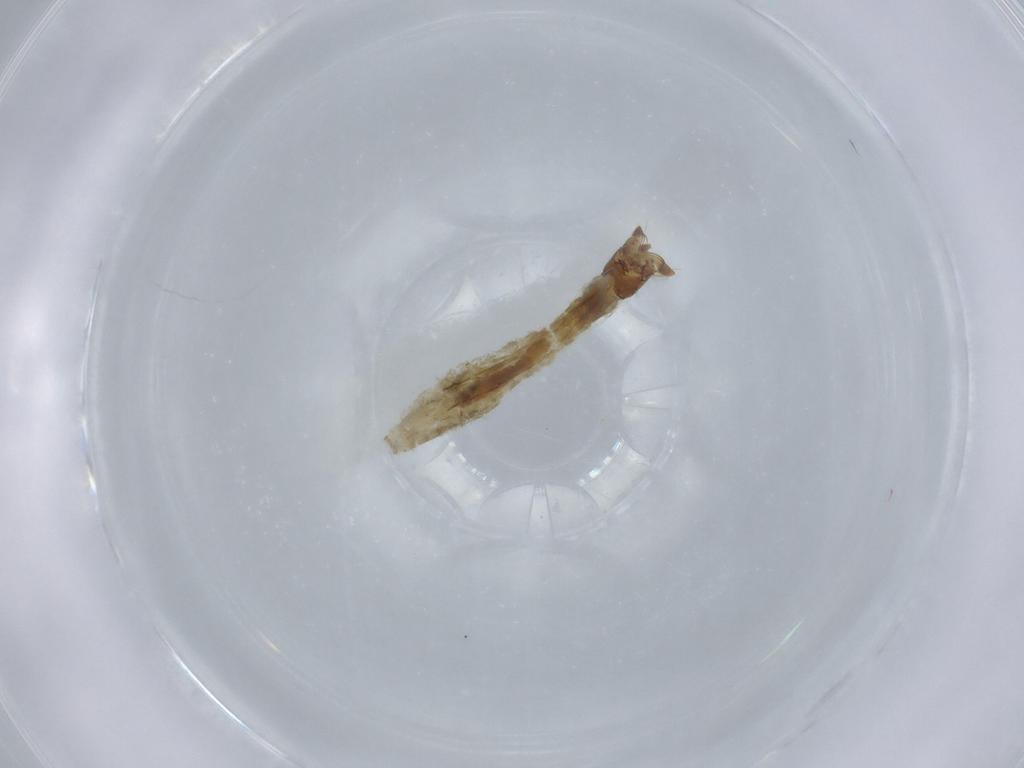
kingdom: Animalia
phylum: Arthropoda
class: Insecta
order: Diptera
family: Simuliidae
